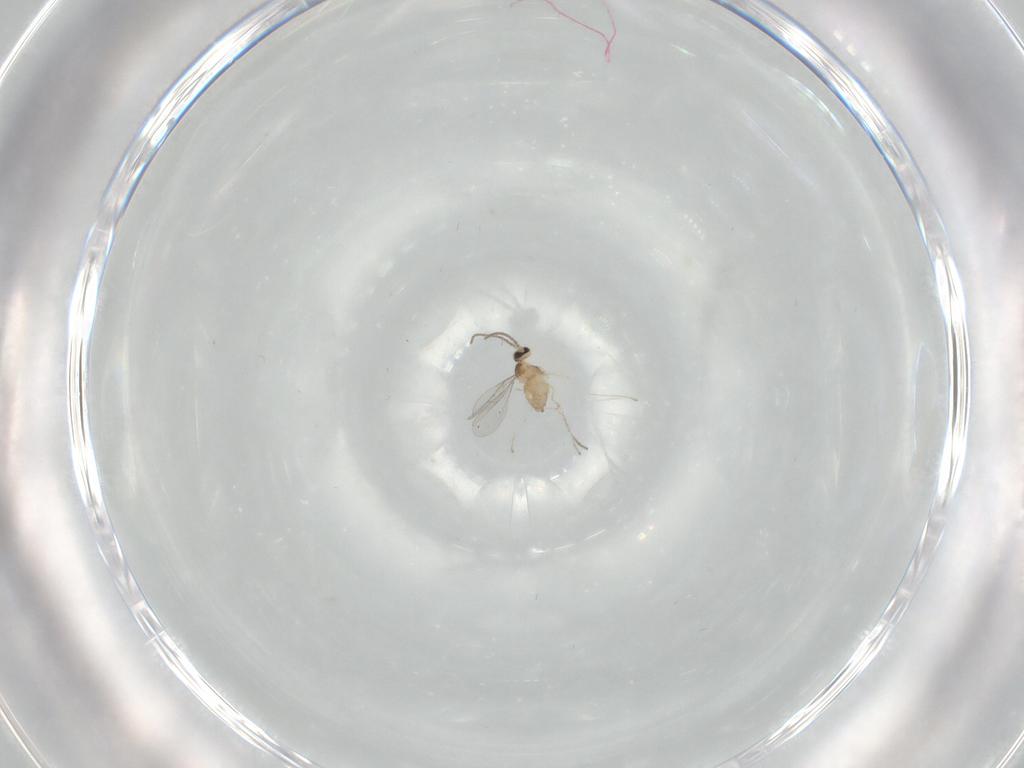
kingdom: Animalia
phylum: Arthropoda
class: Insecta
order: Diptera
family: Cecidomyiidae
